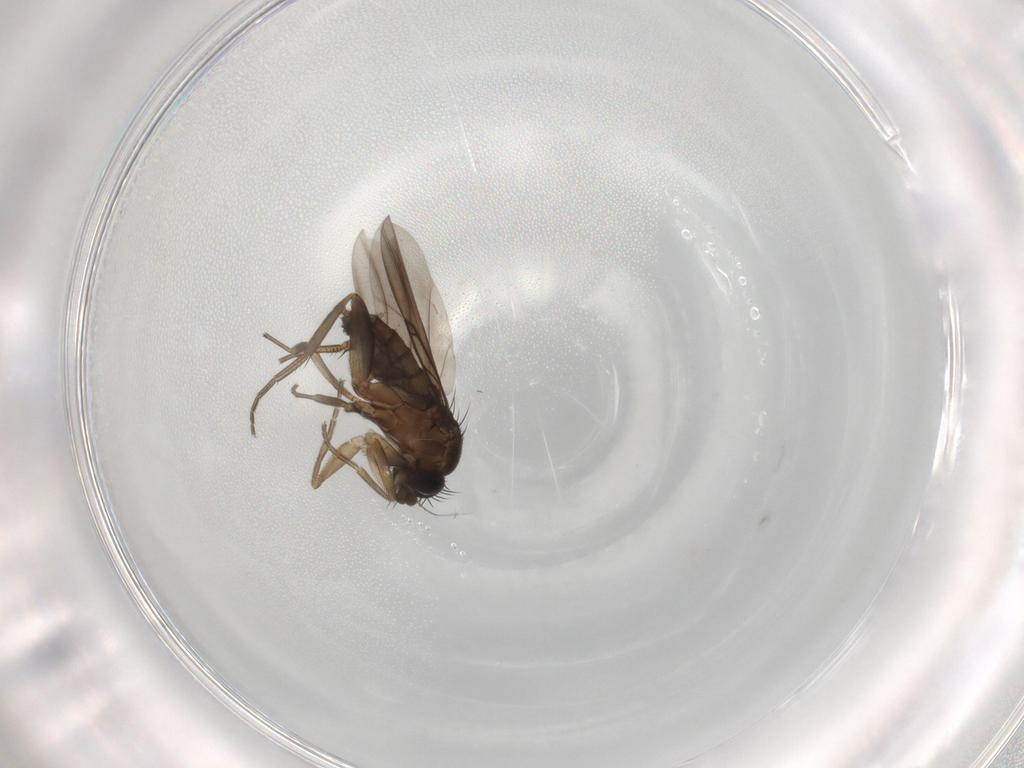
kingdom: Animalia
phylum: Arthropoda
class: Insecta
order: Diptera
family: Phoridae
